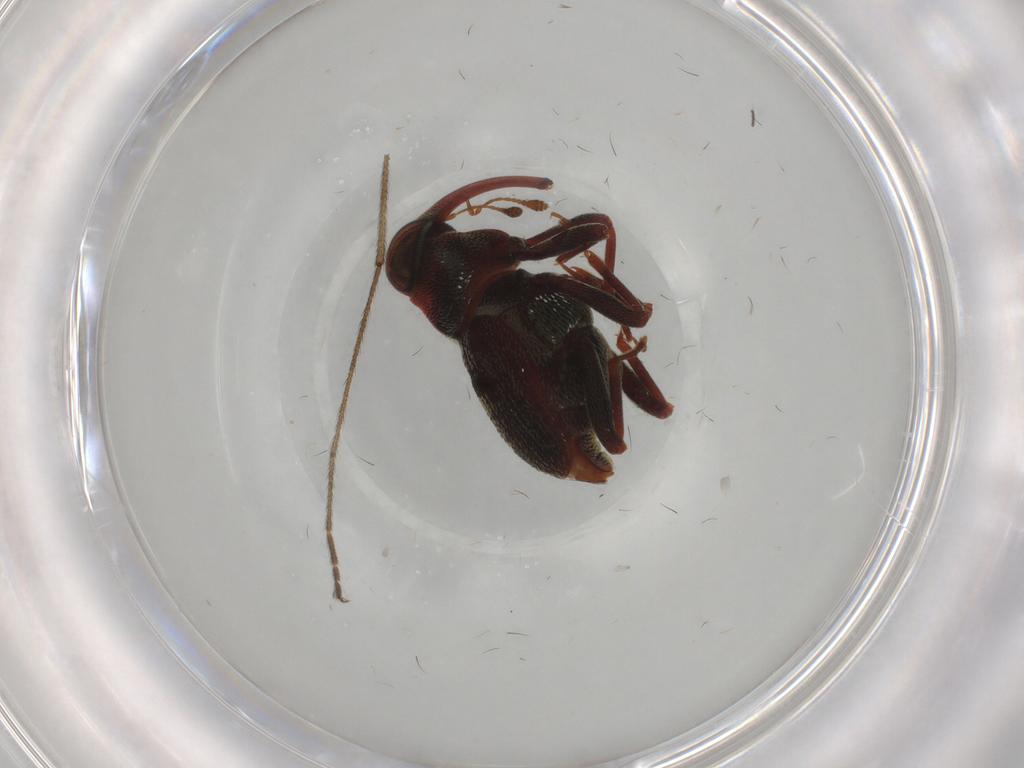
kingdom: Animalia
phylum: Arthropoda
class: Insecta
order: Coleoptera
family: Curculionidae
